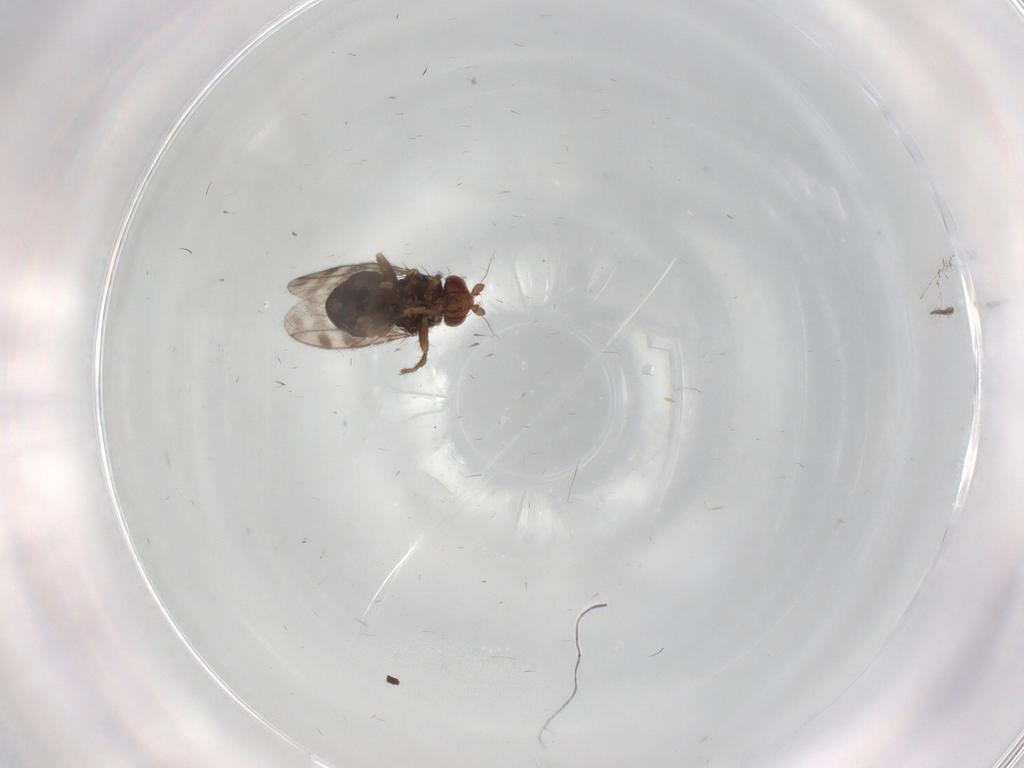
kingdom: Animalia
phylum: Arthropoda
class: Insecta
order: Diptera
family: Sphaeroceridae
